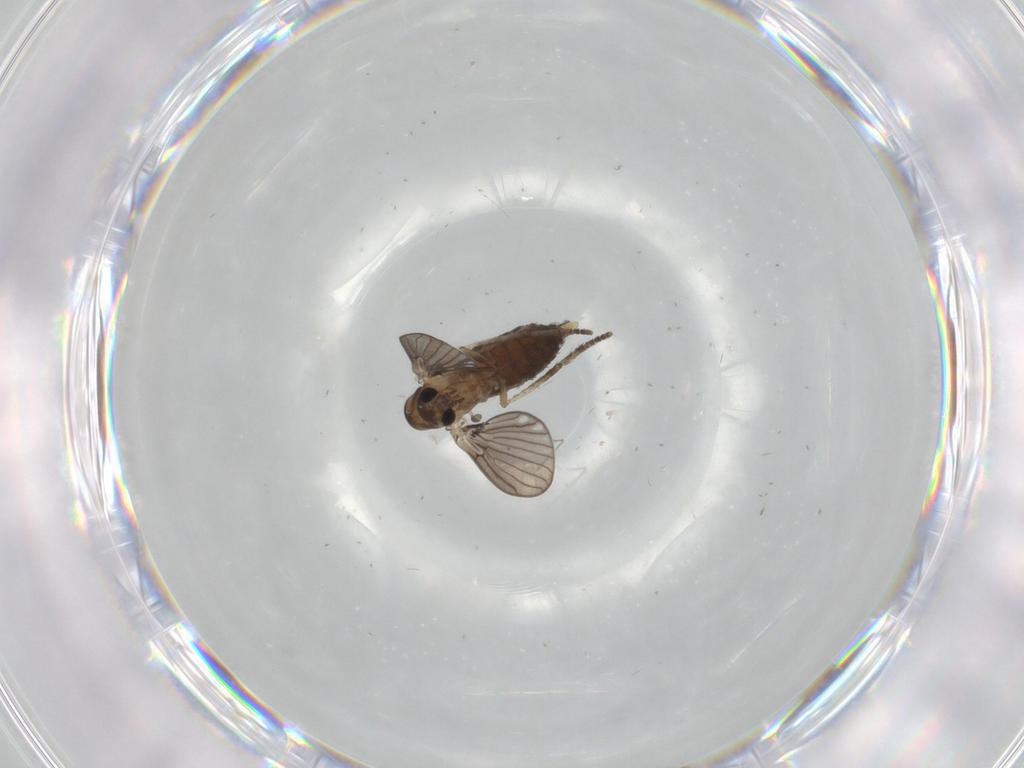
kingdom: Animalia
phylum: Arthropoda
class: Insecta
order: Diptera
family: Psychodidae
